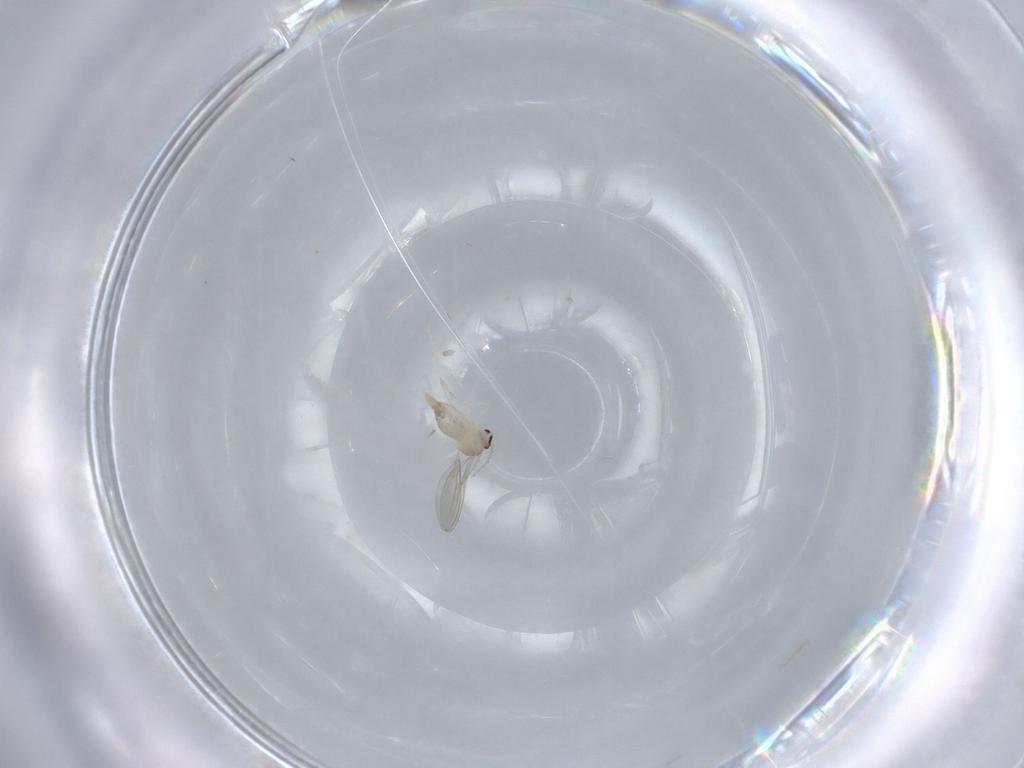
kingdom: Animalia
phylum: Arthropoda
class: Insecta
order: Diptera
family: Cecidomyiidae
